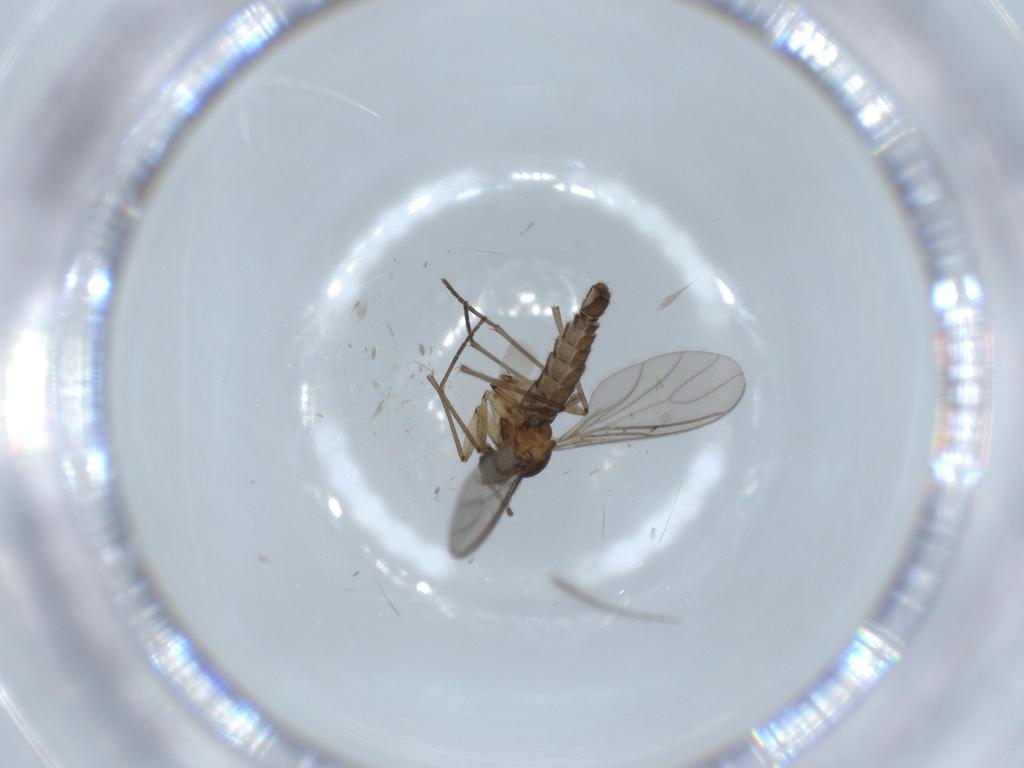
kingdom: Animalia
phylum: Arthropoda
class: Insecta
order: Diptera
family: Sciaridae
